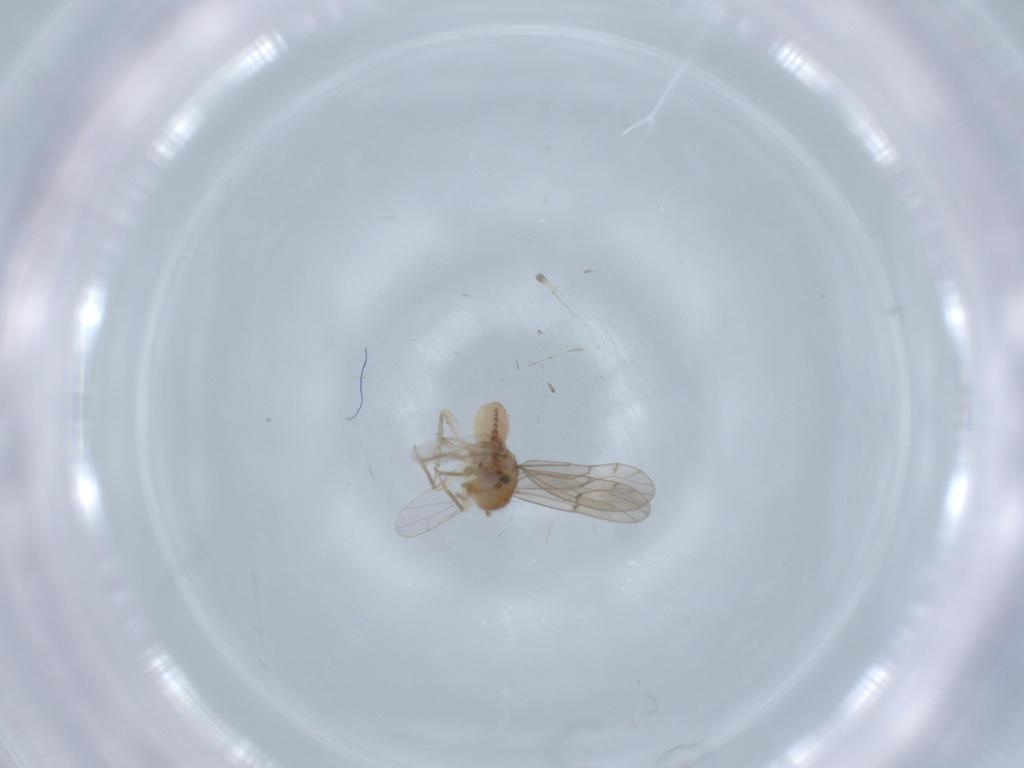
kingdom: Animalia
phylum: Arthropoda
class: Insecta
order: Psocodea
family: Ectopsocidae
